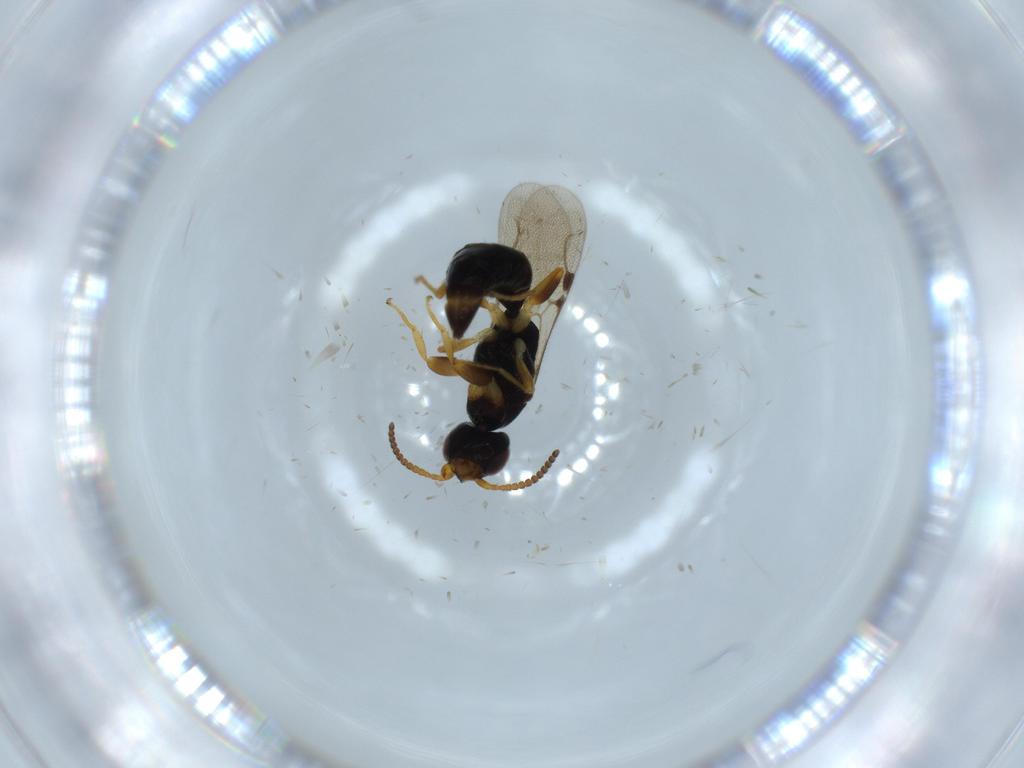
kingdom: Animalia
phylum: Arthropoda
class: Insecta
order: Hymenoptera
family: Bethylidae
